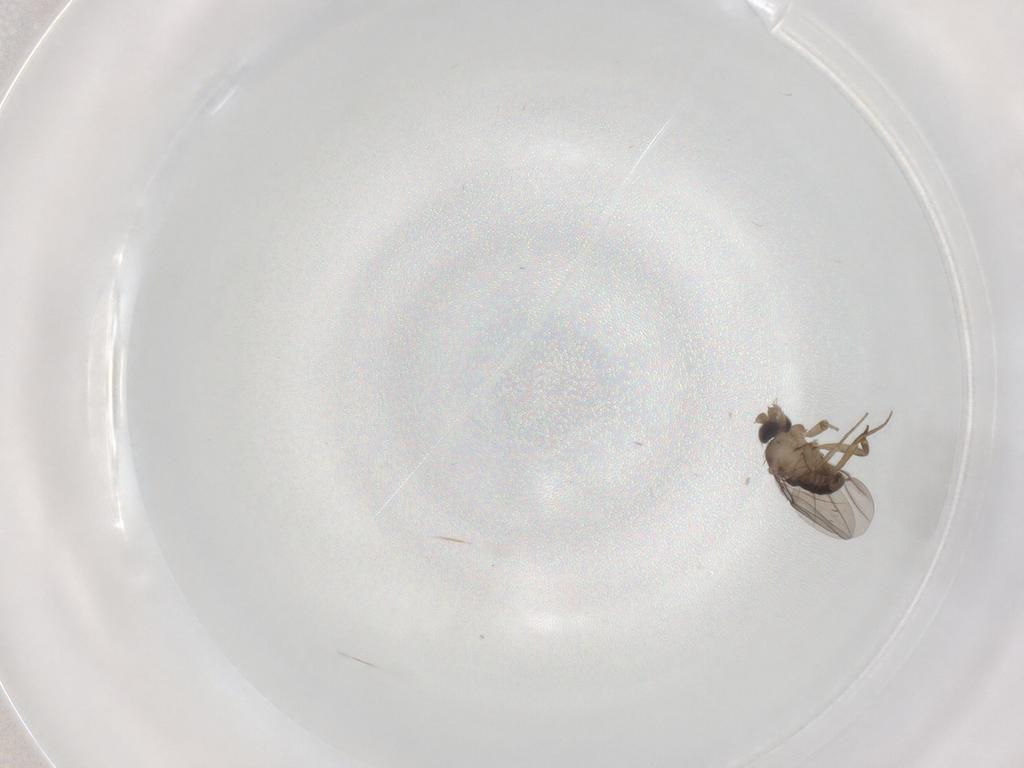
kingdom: Animalia
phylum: Arthropoda
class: Insecta
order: Diptera
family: Phoridae
